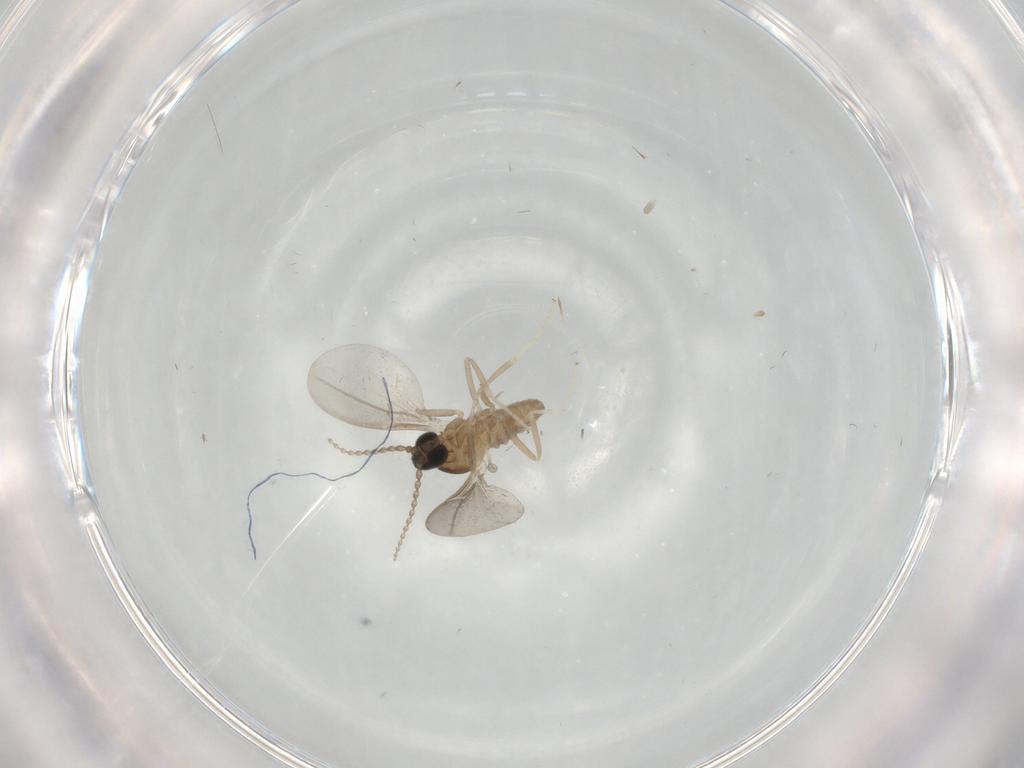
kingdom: Animalia
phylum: Arthropoda
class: Insecta
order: Diptera
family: Cecidomyiidae
